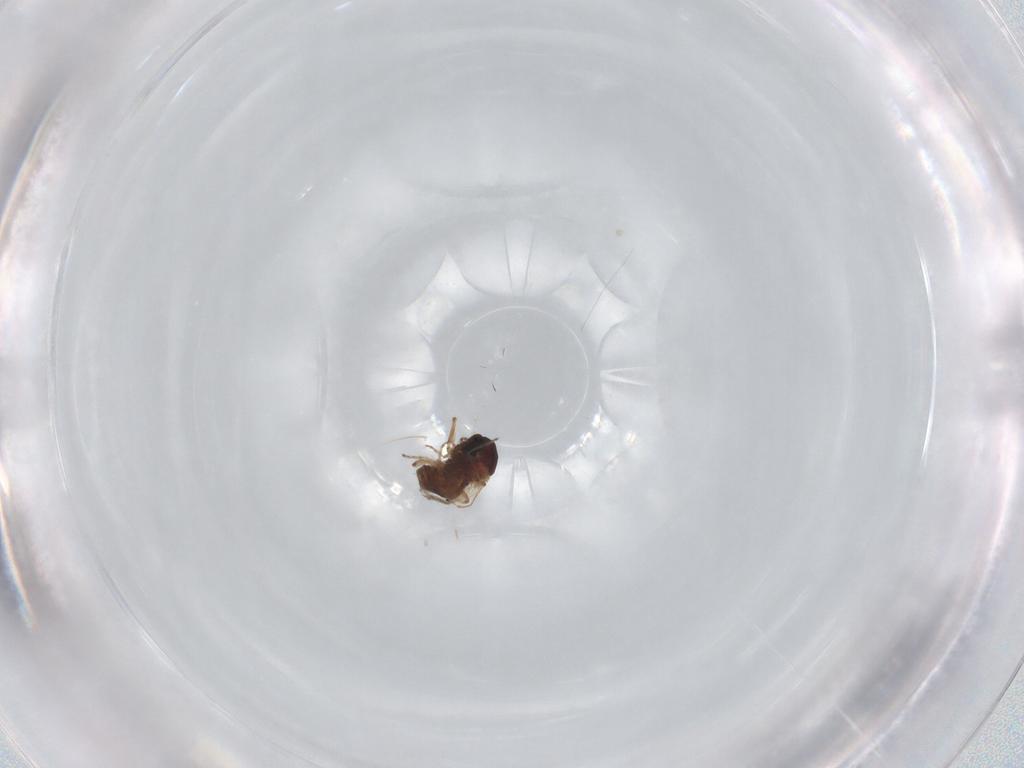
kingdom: Animalia
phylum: Arthropoda
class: Insecta
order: Diptera
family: Ceratopogonidae
